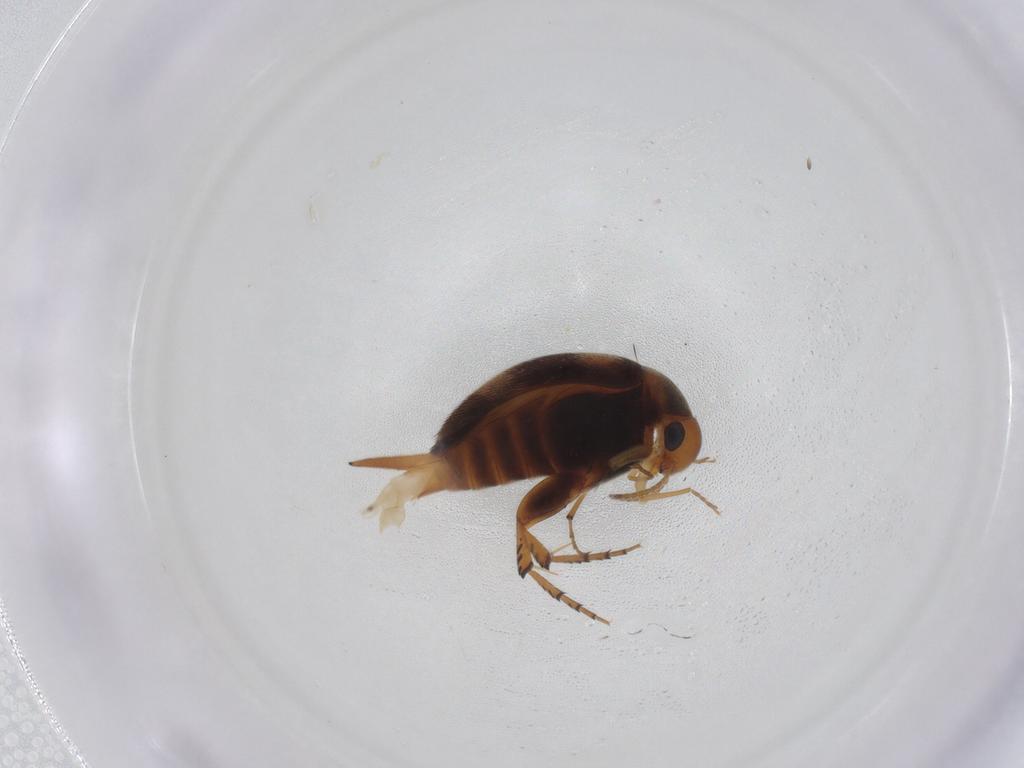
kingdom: Animalia
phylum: Arthropoda
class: Insecta
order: Coleoptera
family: Mordellidae
